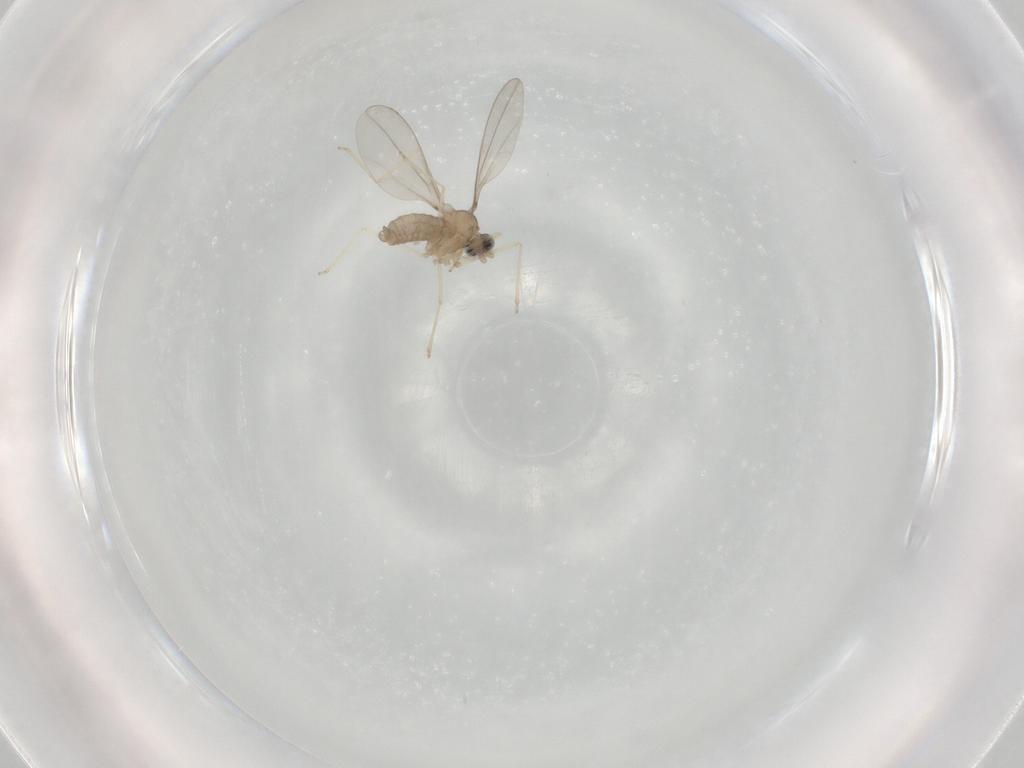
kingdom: Animalia
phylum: Arthropoda
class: Insecta
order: Diptera
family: Cecidomyiidae
